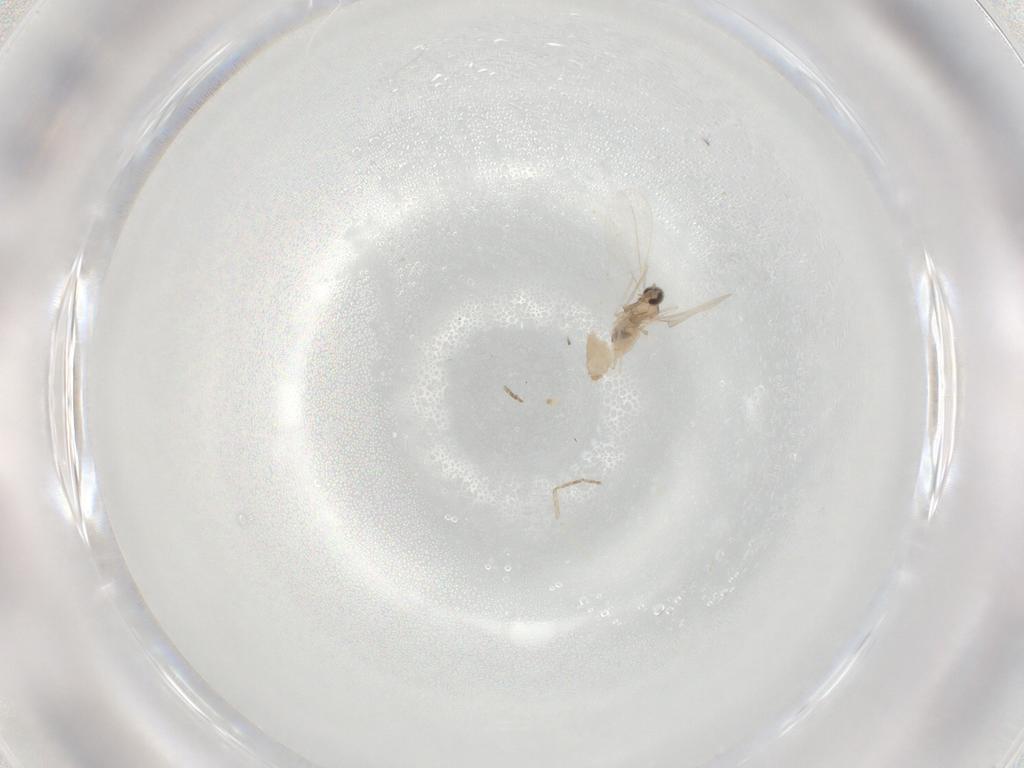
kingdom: Animalia
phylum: Arthropoda
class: Insecta
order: Diptera
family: Cecidomyiidae
